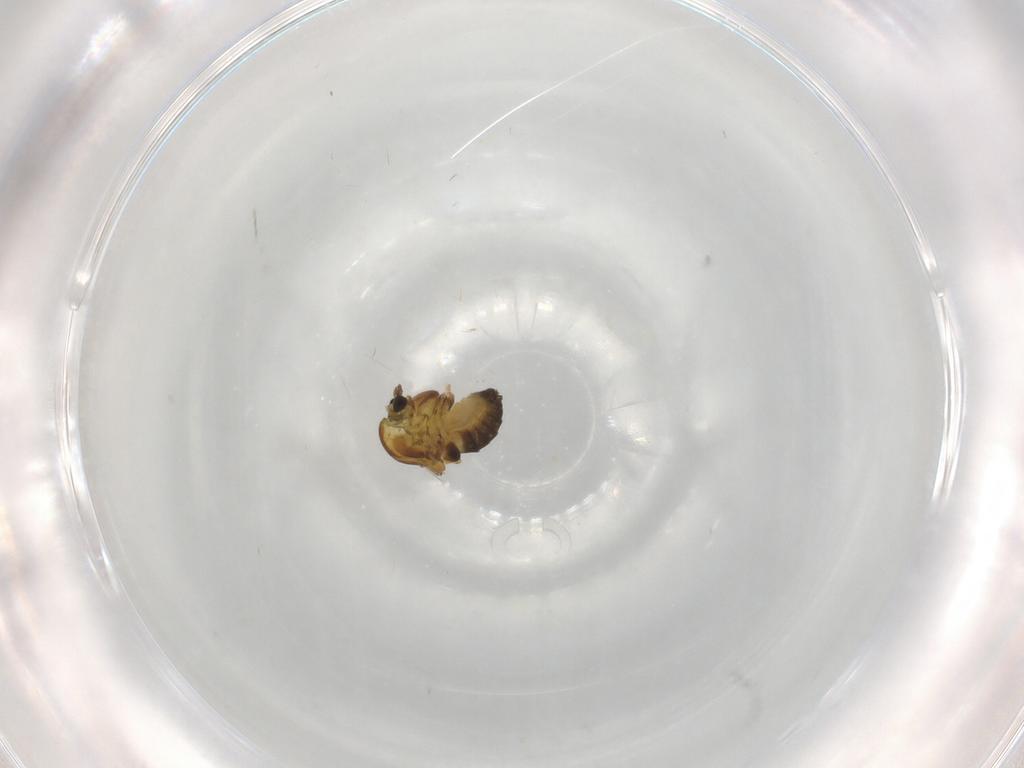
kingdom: Animalia
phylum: Arthropoda
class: Insecta
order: Diptera
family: Chironomidae
